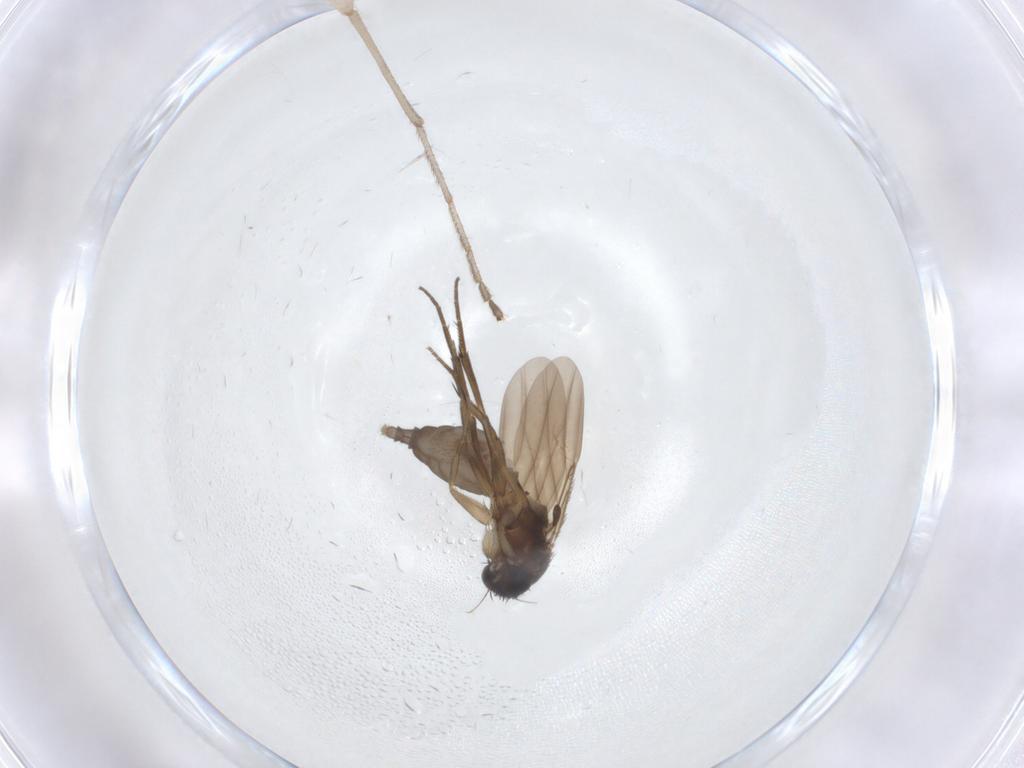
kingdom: Animalia
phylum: Arthropoda
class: Insecta
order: Diptera
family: Phoridae
